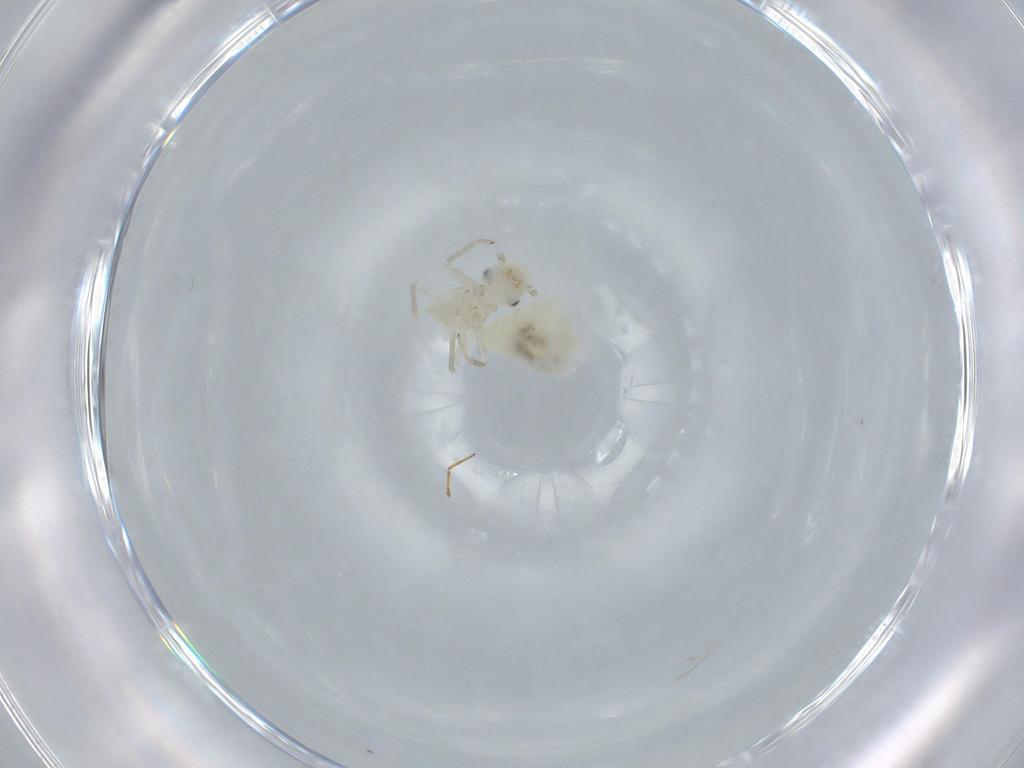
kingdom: Animalia
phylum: Arthropoda
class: Insecta
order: Psocodea
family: Caeciliusidae
